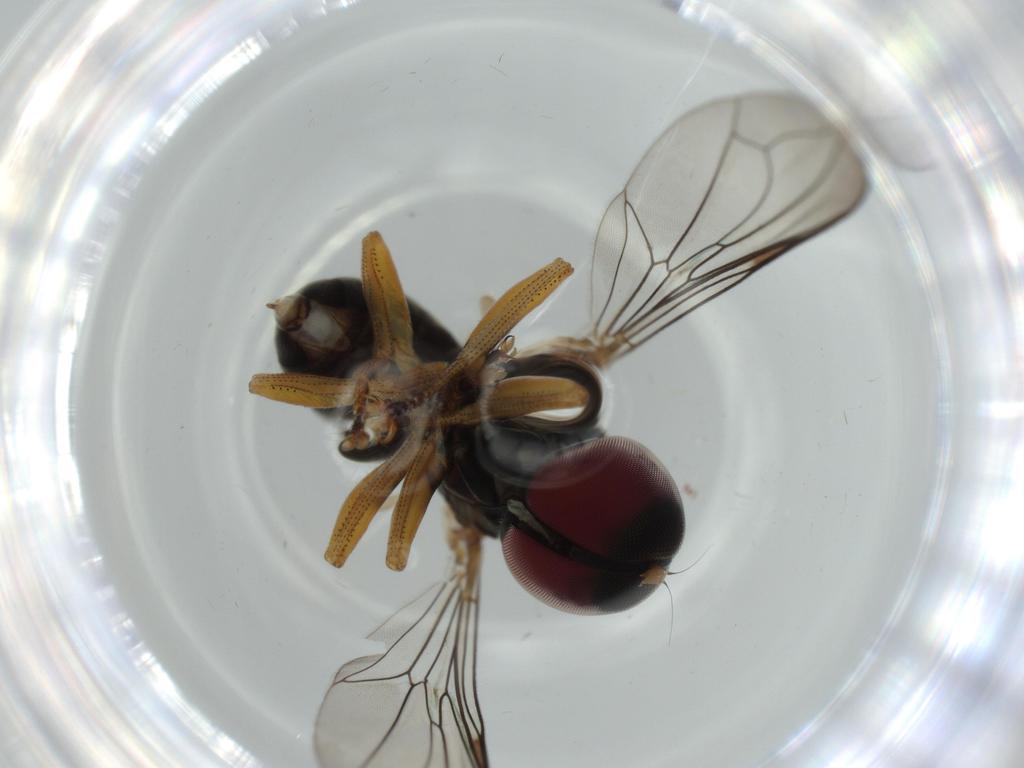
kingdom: Animalia
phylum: Arthropoda
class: Insecta
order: Diptera
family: Pipunculidae
